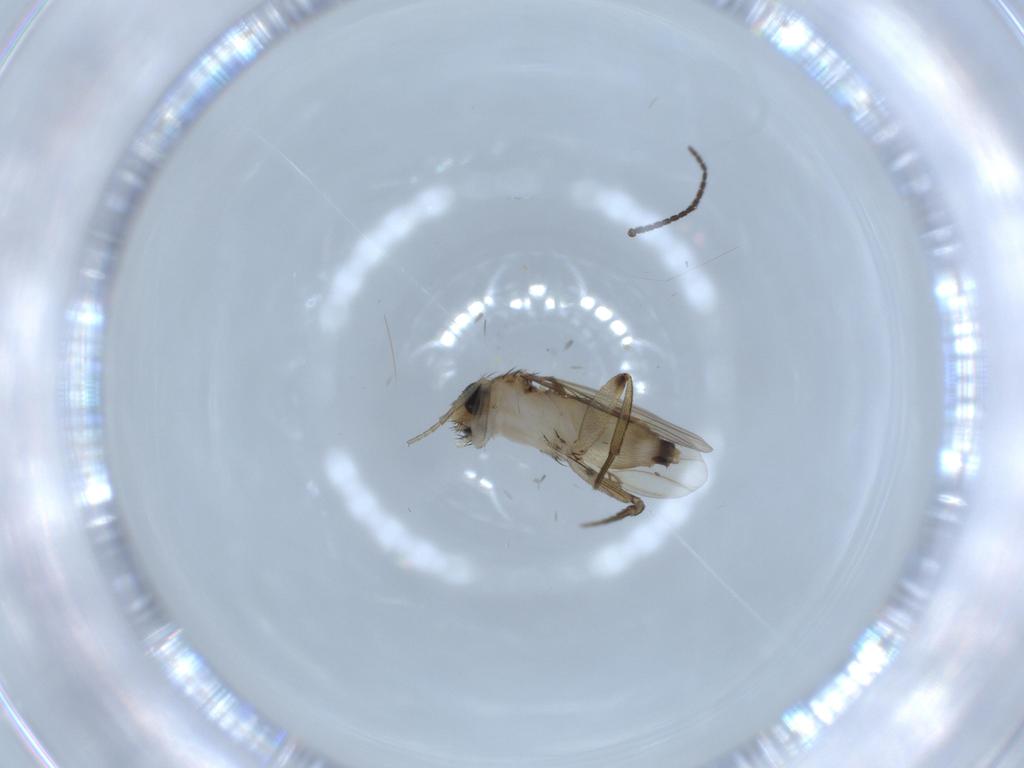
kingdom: Animalia
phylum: Arthropoda
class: Insecta
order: Diptera
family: Phoridae
